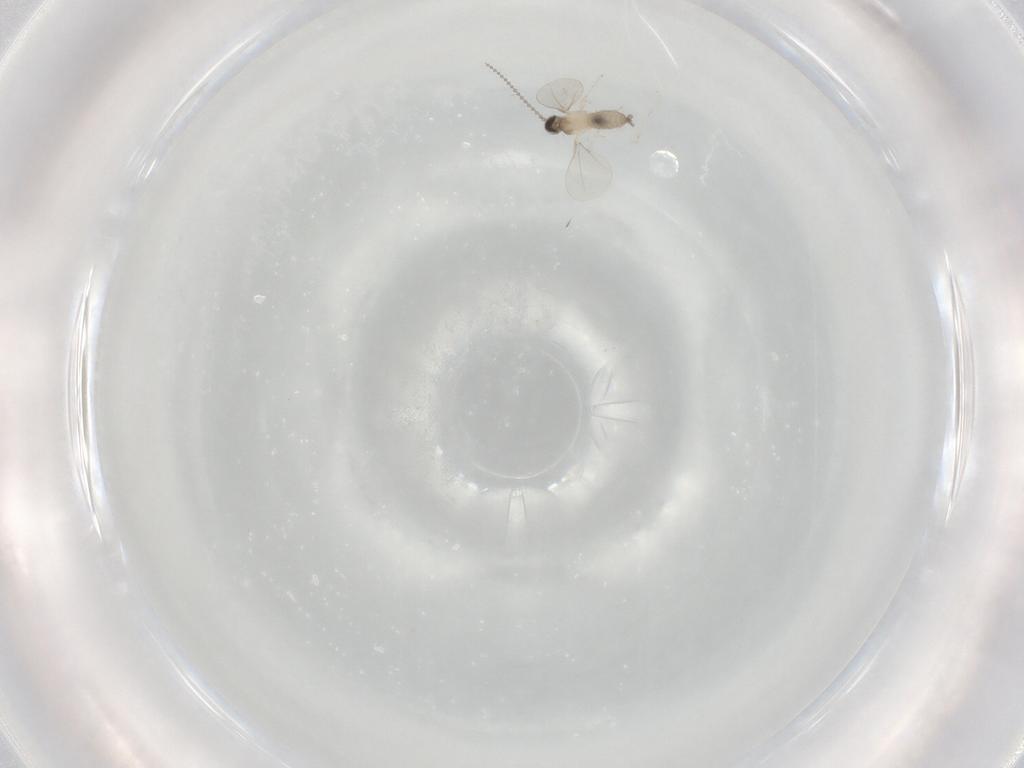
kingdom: Animalia
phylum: Arthropoda
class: Insecta
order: Diptera
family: Cecidomyiidae
